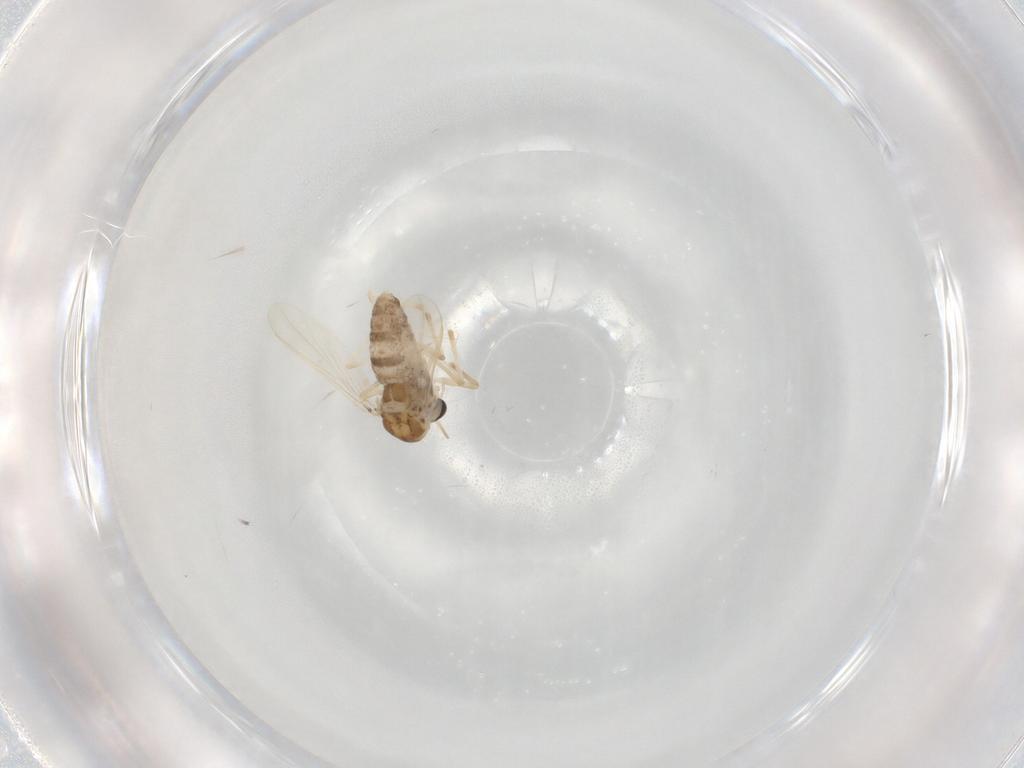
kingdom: Animalia
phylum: Arthropoda
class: Insecta
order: Diptera
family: Chironomidae
